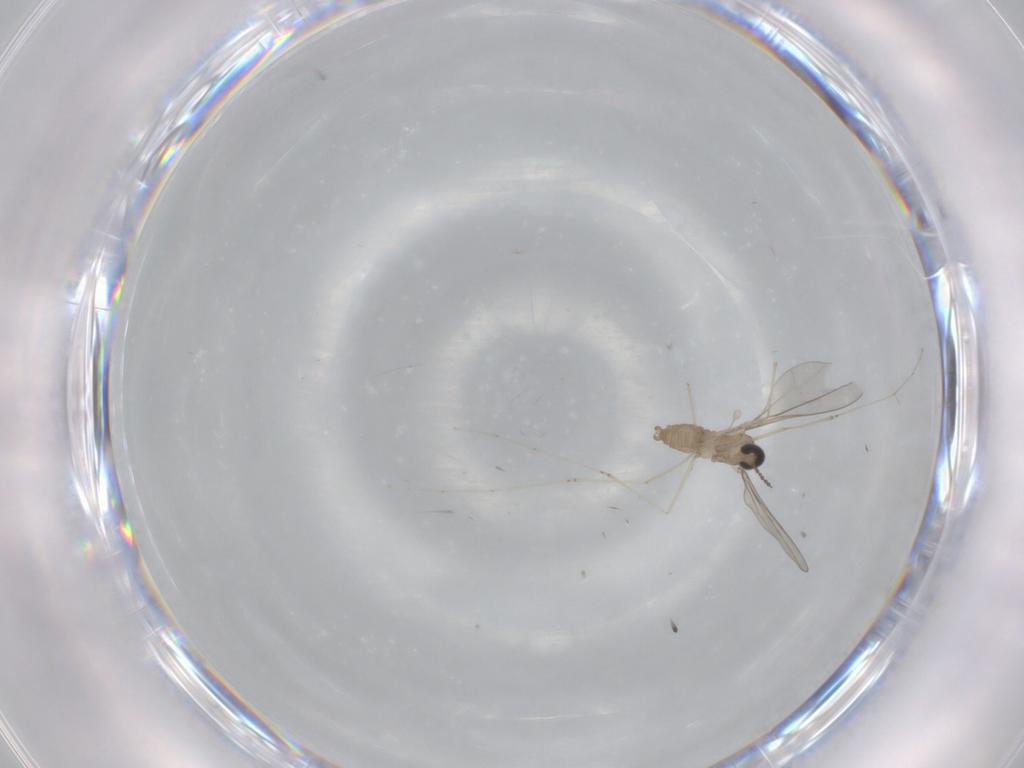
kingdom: Animalia
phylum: Arthropoda
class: Insecta
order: Diptera
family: Cecidomyiidae
